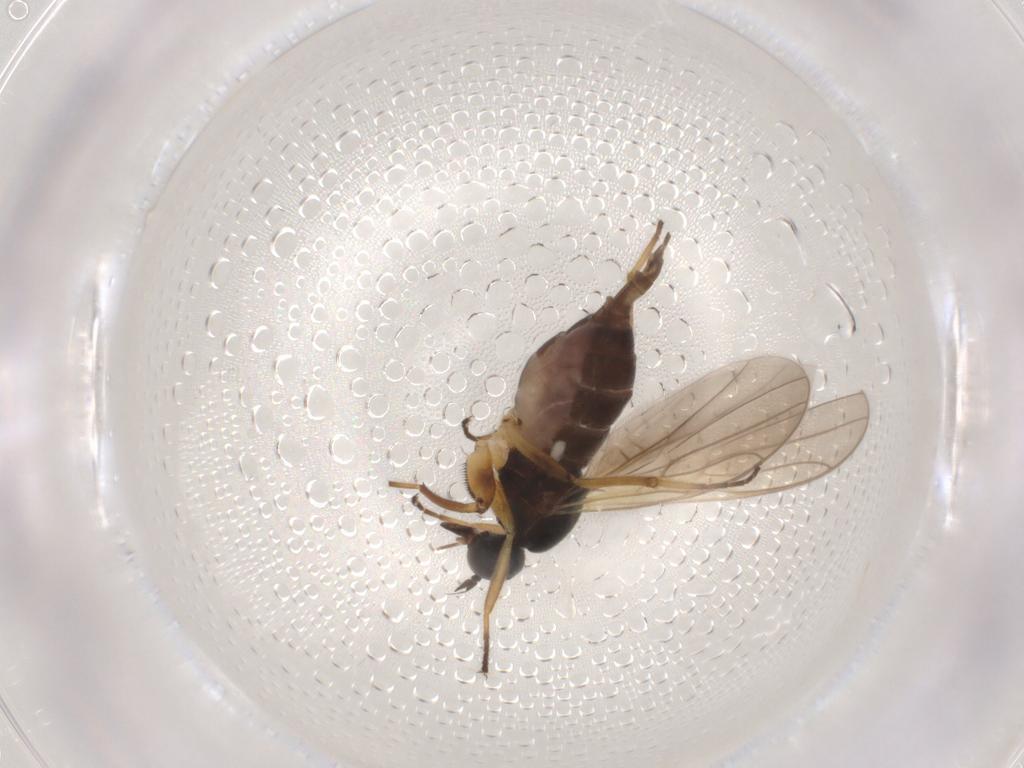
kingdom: Animalia
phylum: Arthropoda
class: Insecta
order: Diptera
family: Hybotidae
